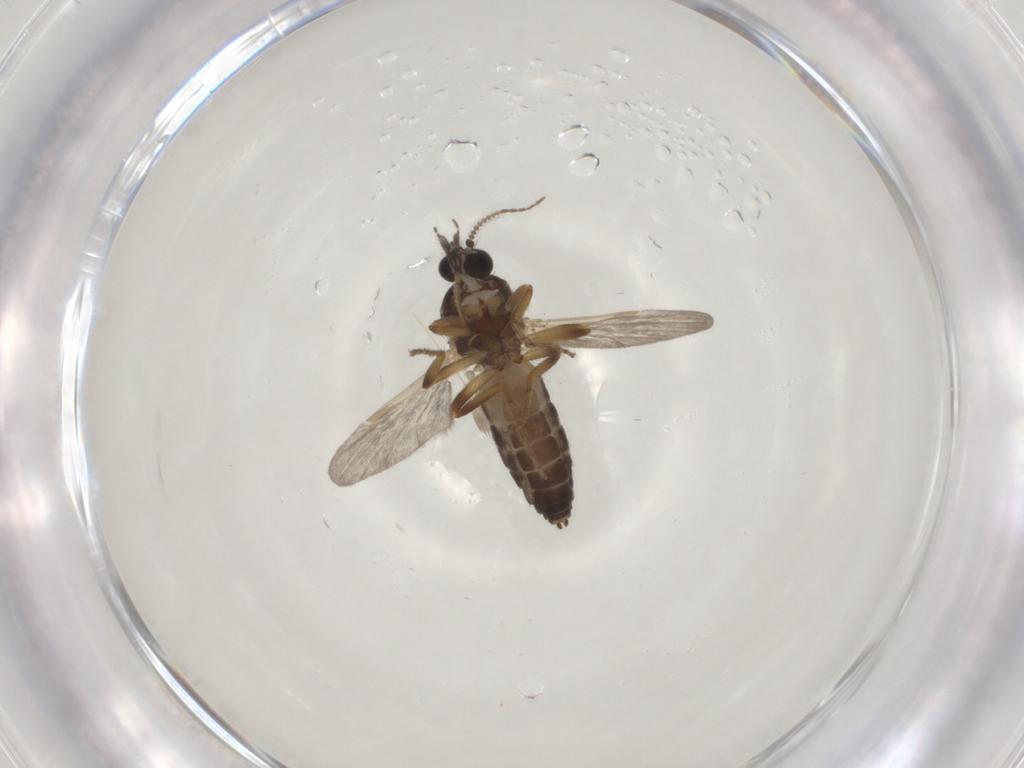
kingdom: Animalia
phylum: Arthropoda
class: Insecta
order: Diptera
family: Ceratopogonidae
